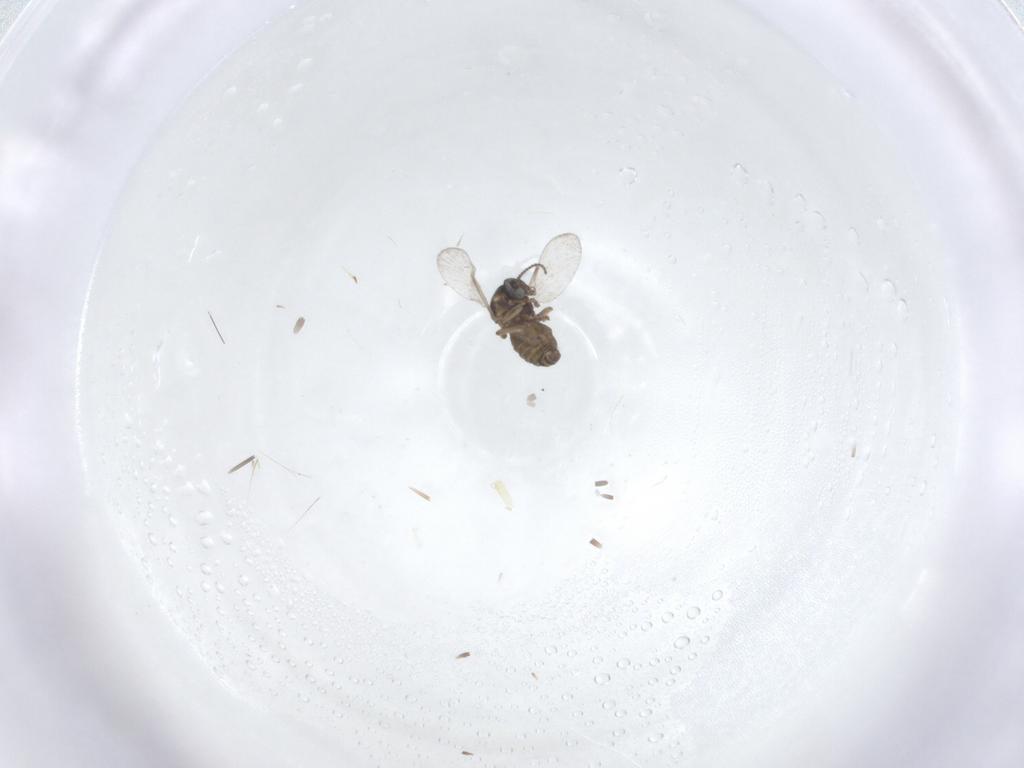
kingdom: Animalia
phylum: Arthropoda
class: Insecta
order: Diptera
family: Ceratopogonidae
